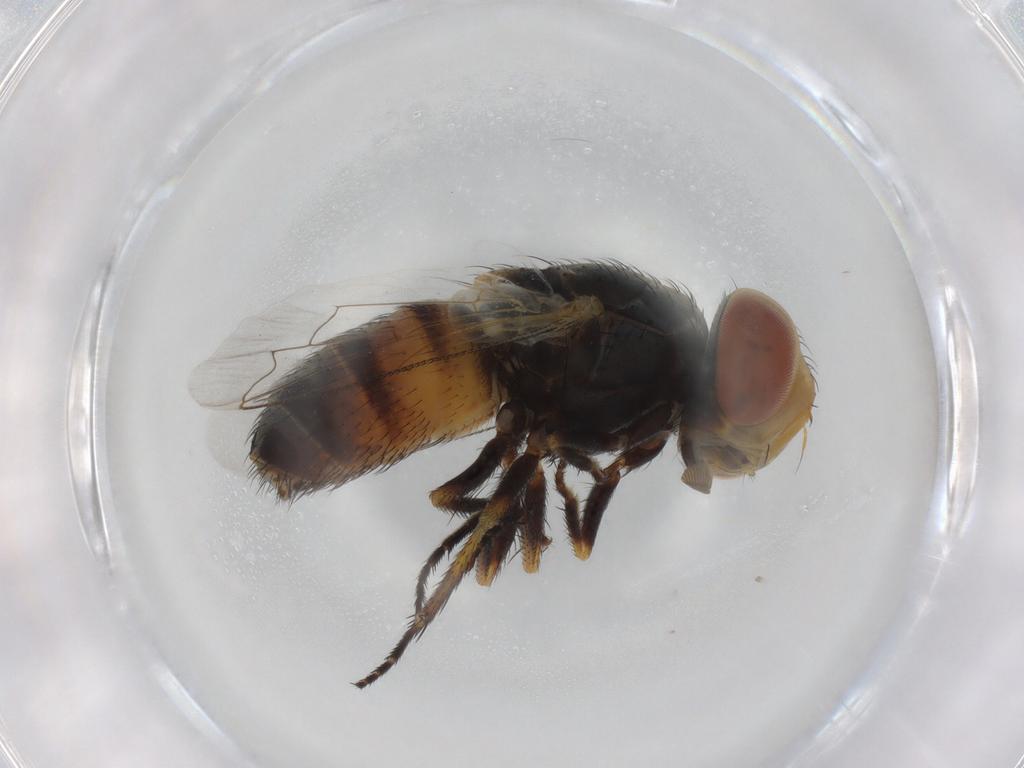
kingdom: Animalia
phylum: Arthropoda
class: Insecta
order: Diptera
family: Sarcophagidae
